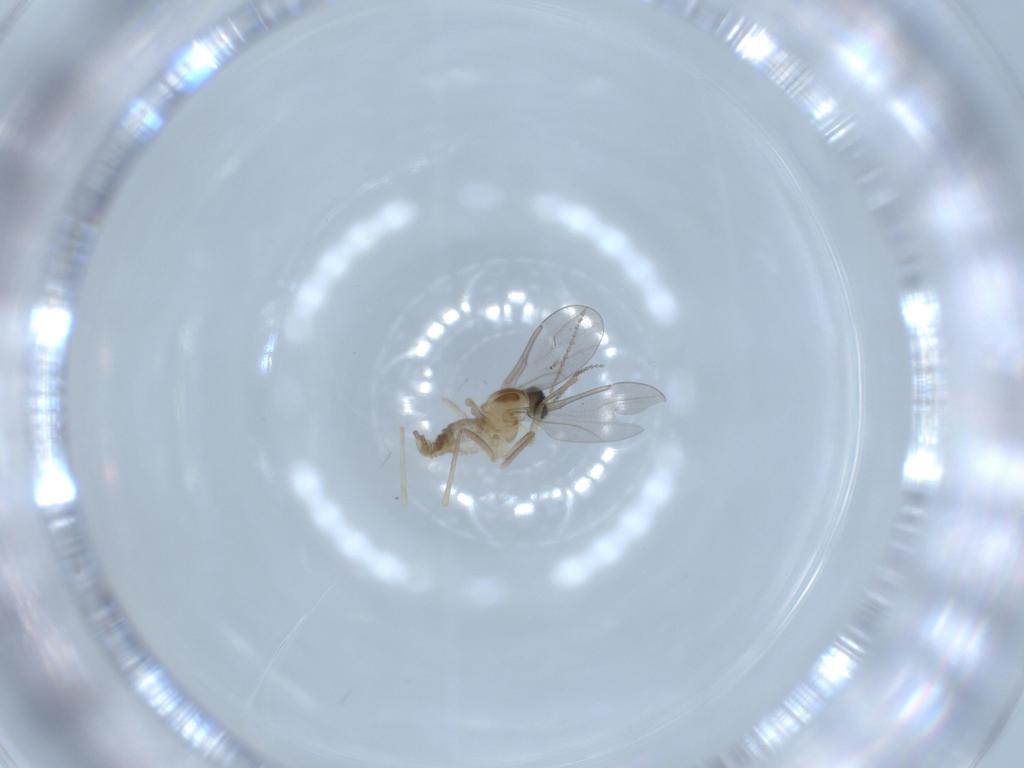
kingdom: Animalia
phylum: Arthropoda
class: Insecta
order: Diptera
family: Cecidomyiidae
